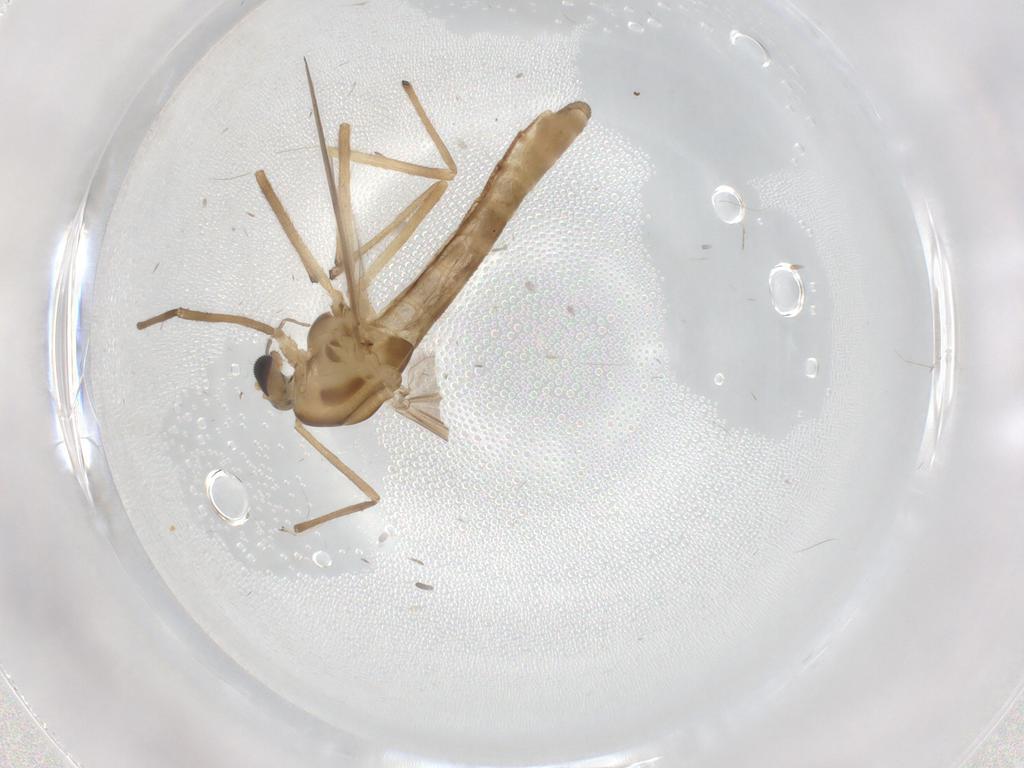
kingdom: Animalia
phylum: Arthropoda
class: Insecta
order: Diptera
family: Chironomidae
